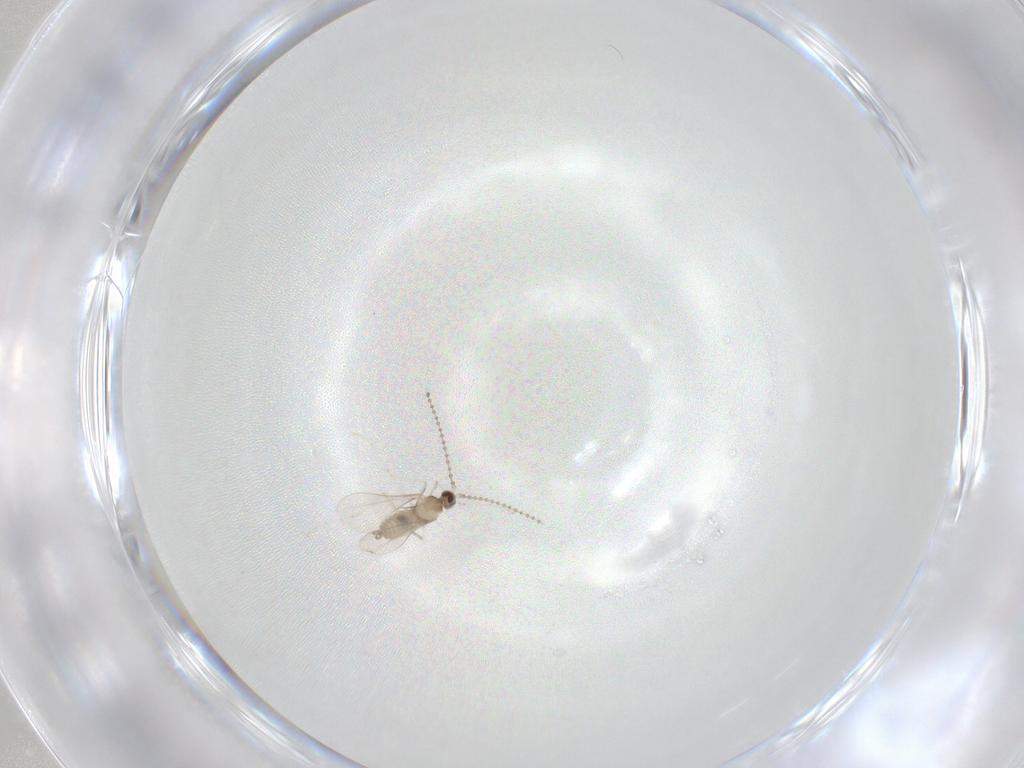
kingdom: Animalia
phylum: Arthropoda
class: Insecta
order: Diptera
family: Cecidomyiidae
